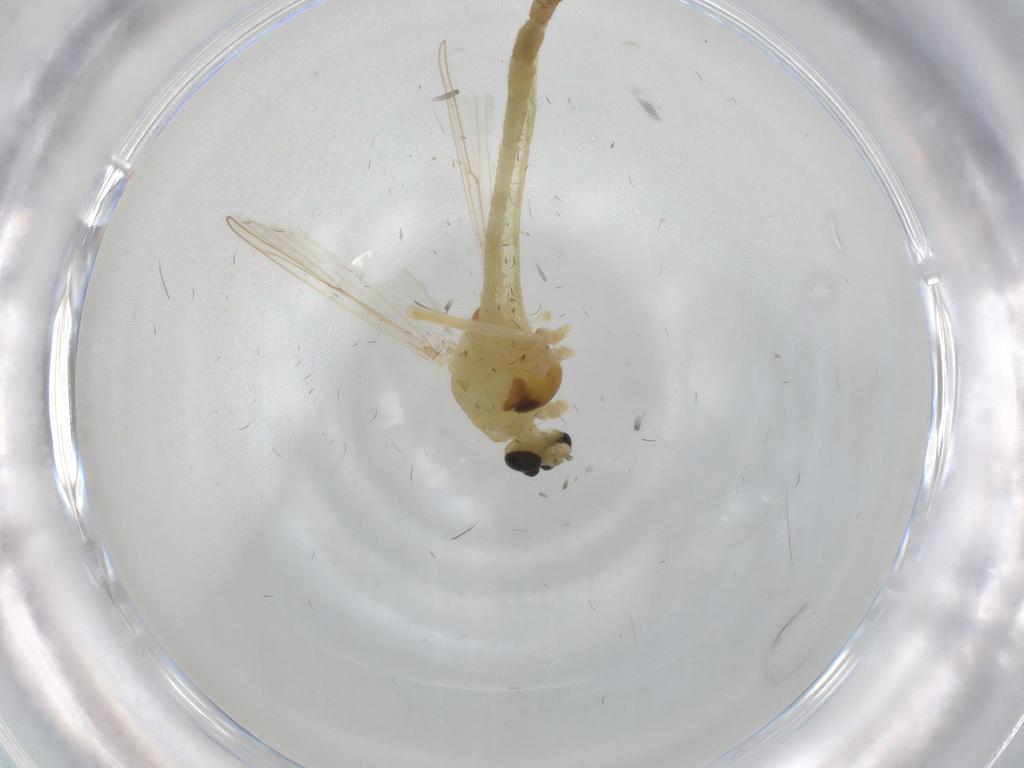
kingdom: Animalia
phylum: Arthropoda
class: Insecta
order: Diptera
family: Chironomidae
